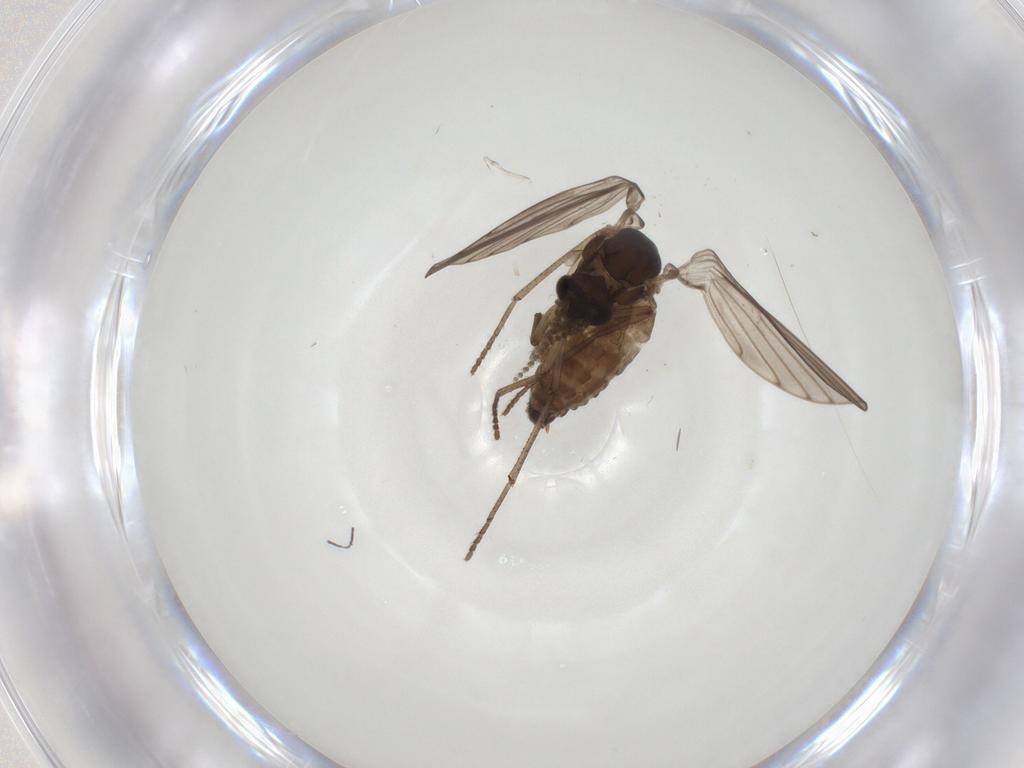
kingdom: Animalia
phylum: Arthropoda
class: Insecta
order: Diptera
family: Psychodidae
